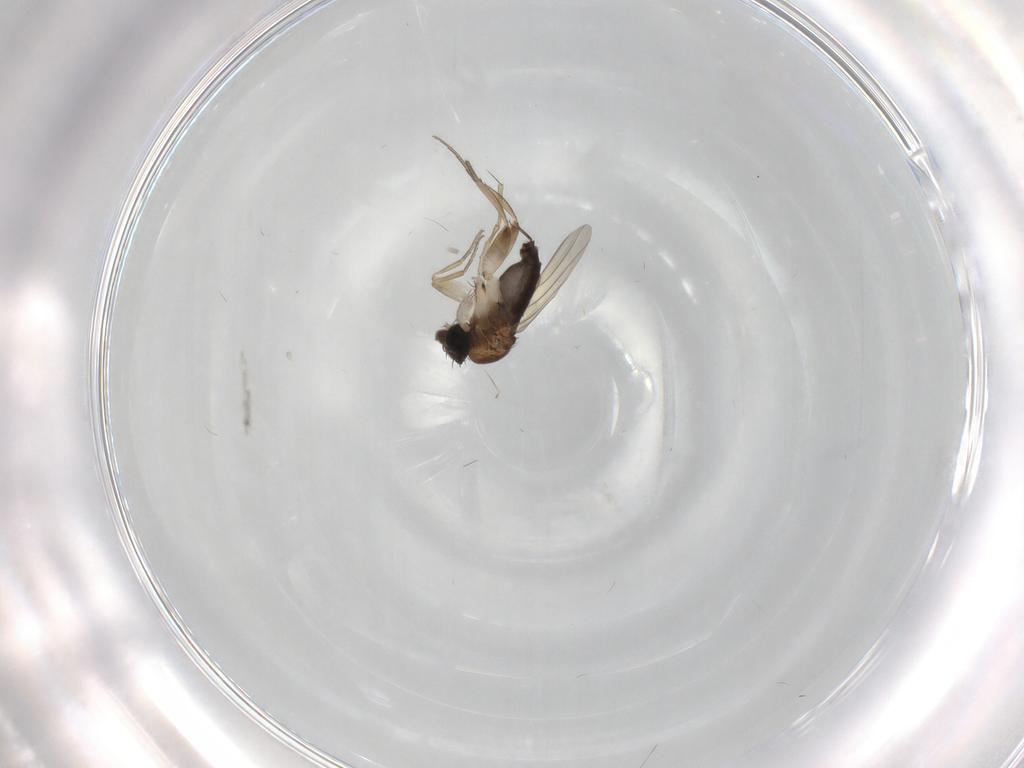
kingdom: Animalia
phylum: Arthropoda
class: Insecta
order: Diptera
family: Phoridae
